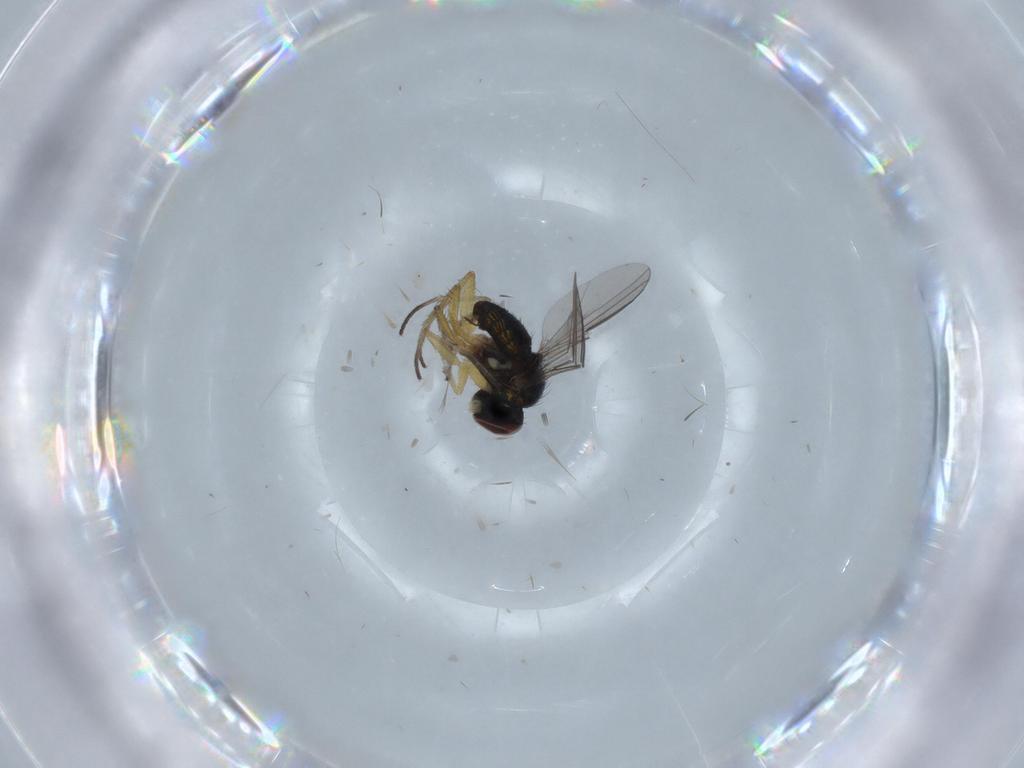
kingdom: Animalia
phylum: Arthropoda
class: Insecta
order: Diptera
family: Dolichopodidae
